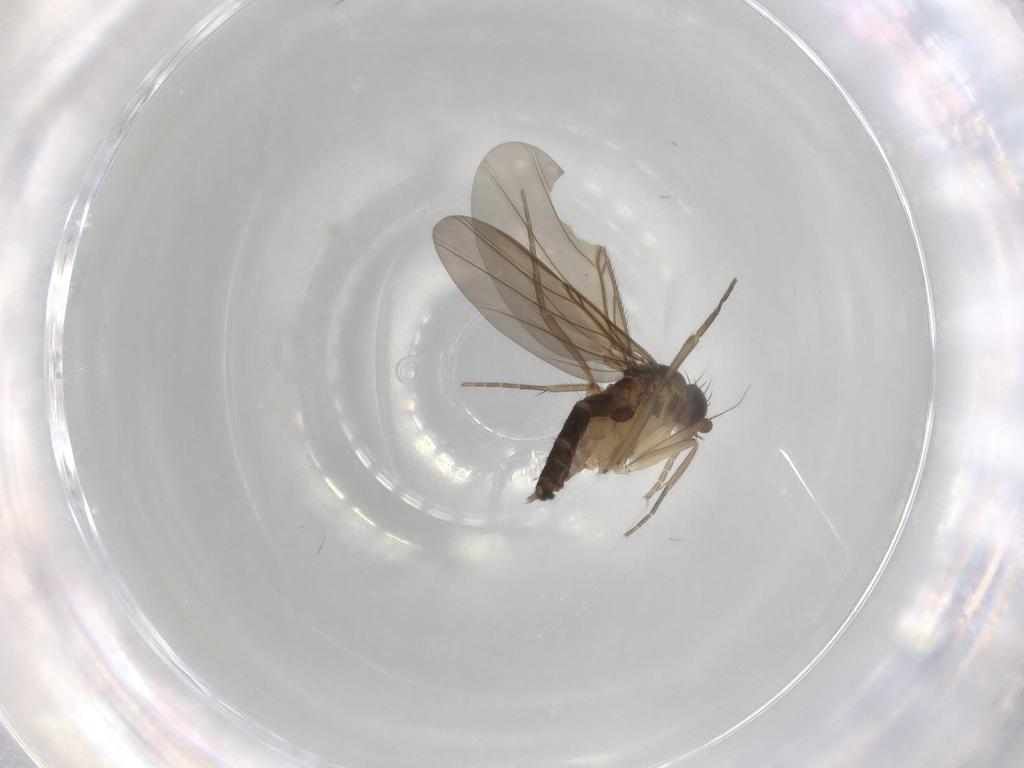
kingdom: Animalia
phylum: Arthropoda
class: Insecta
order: Diptera
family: Phoridae
